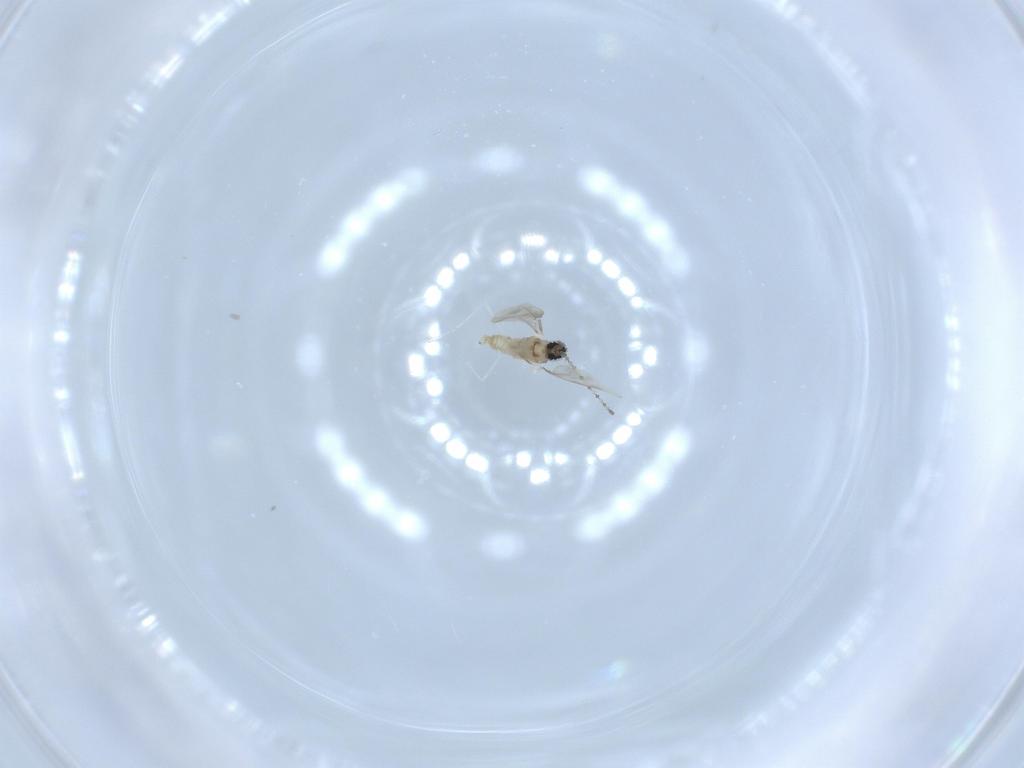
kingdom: Animalia
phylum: Arthropoda
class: Insecta
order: Diptera
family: Cecidomyiidae
